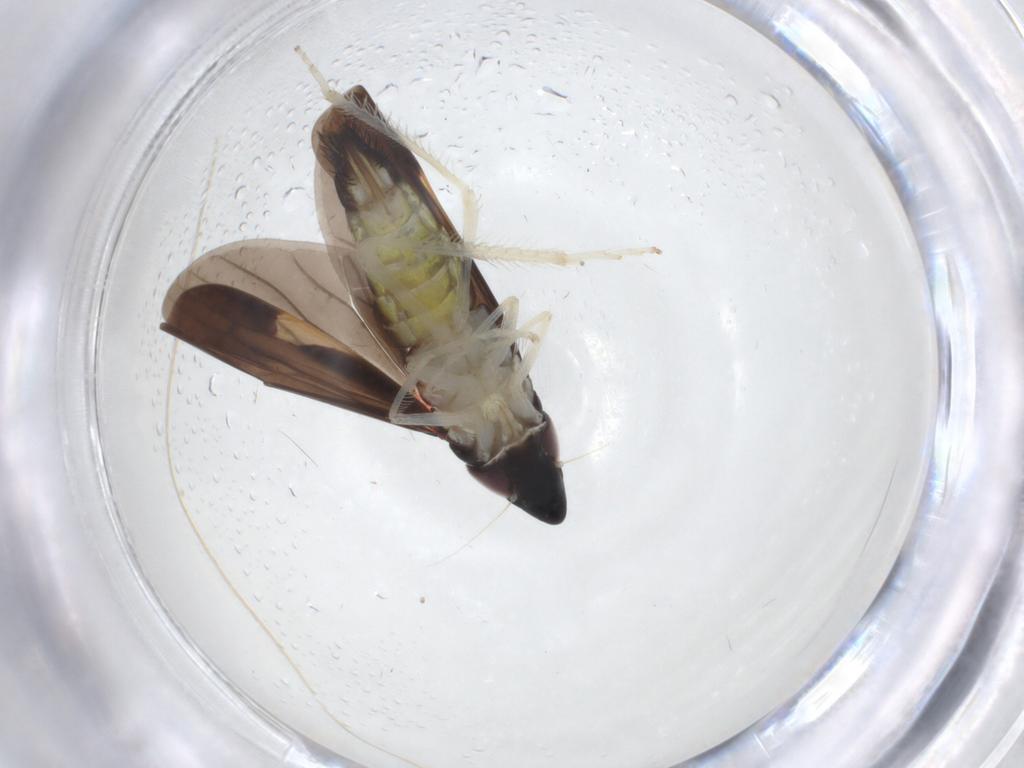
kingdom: Animalia
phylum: Arthropoda
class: Insecta
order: Hemiptera
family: Cicadellidae
